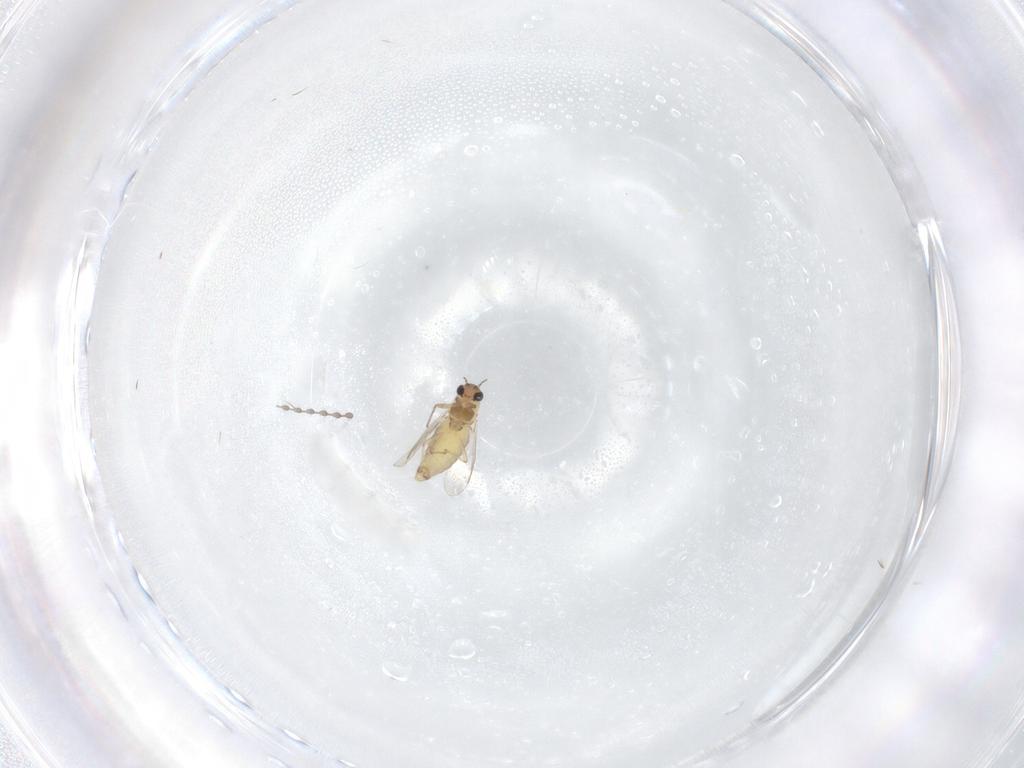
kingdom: Animalia
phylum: Arthropoda
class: Insecta
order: Diptera
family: Chironomidae
